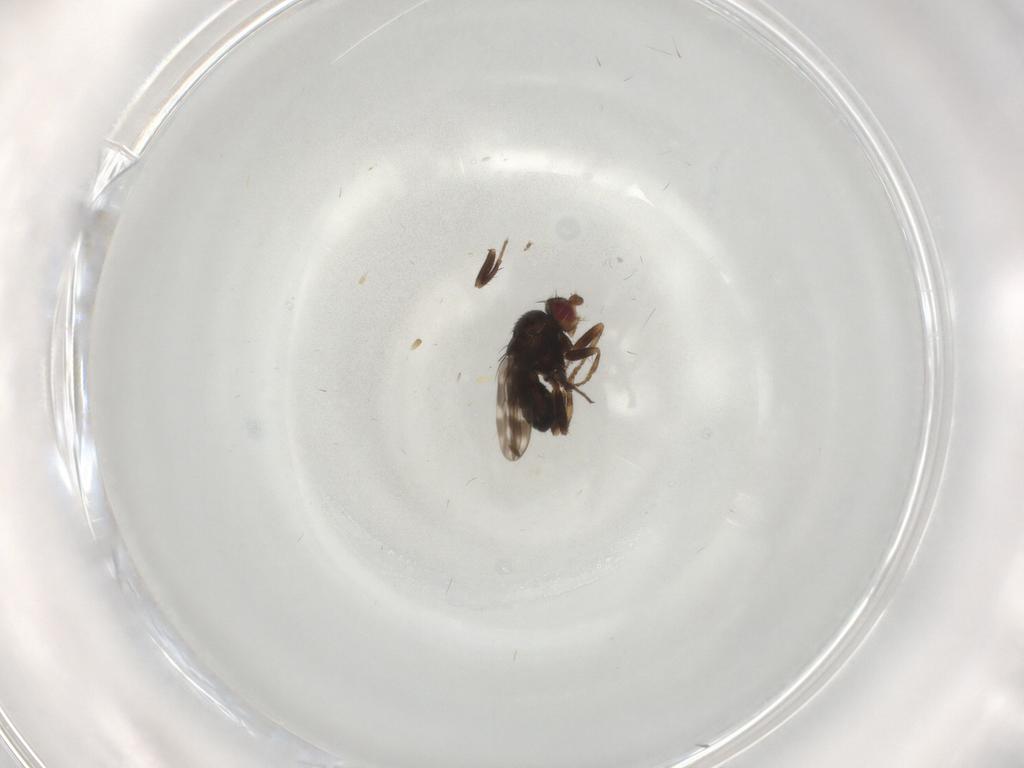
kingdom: Animalia
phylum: Arthropoda
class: Insecta
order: Diptera
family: Sphaeroceridae
